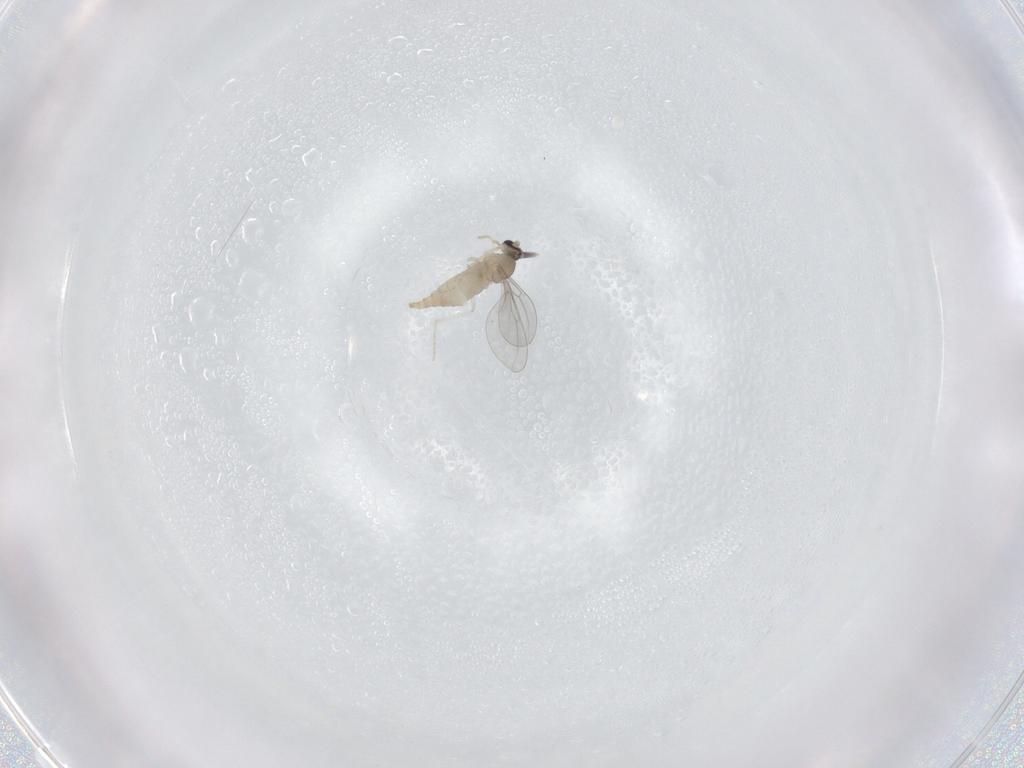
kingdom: Animalia
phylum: Arthropoda
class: Insecta
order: Diptera
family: Cecidomyiidae
